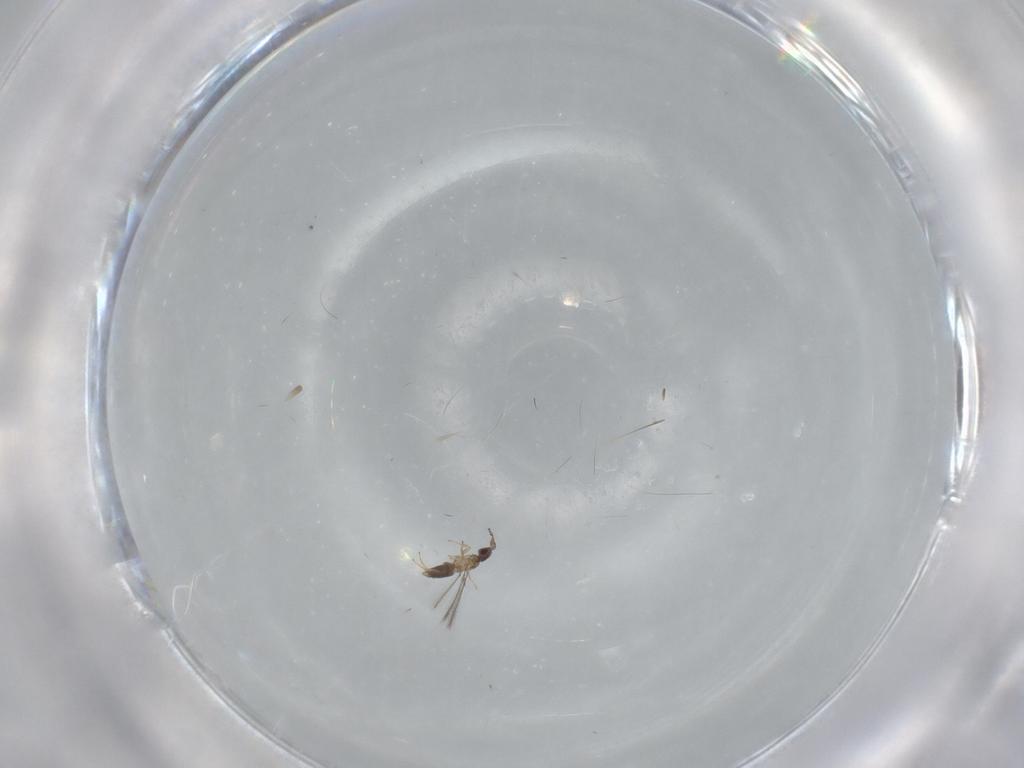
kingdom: Animalia
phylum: Arthropoda
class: Insecta
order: Hymenoptera
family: Mymaridae
